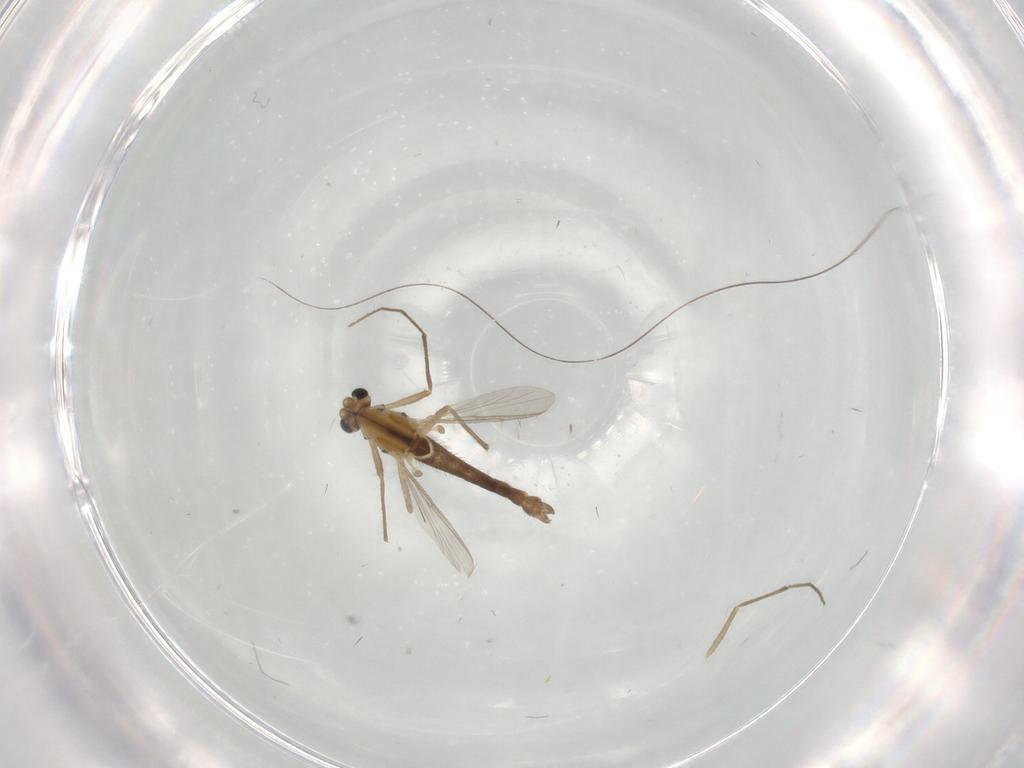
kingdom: Animalia
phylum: Arthropoda
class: Insecta
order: Diptera
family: Chironomidae
